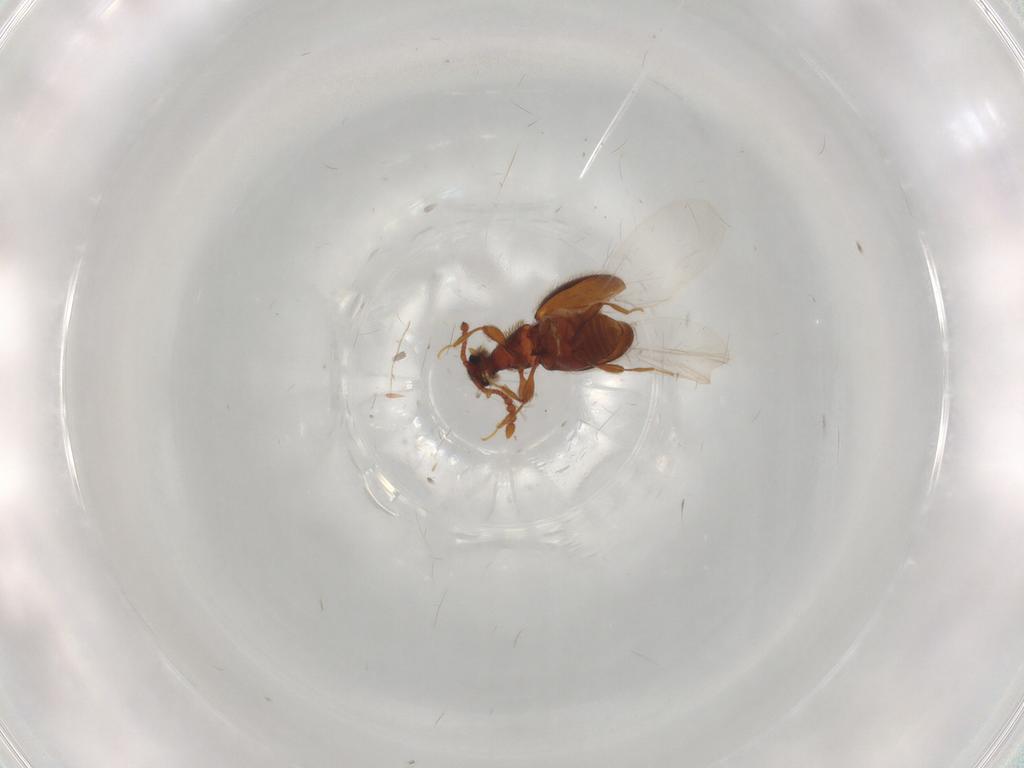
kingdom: Animalia
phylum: Arthropoda
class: Insecta
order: Coleoptera
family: Staphylinidae
